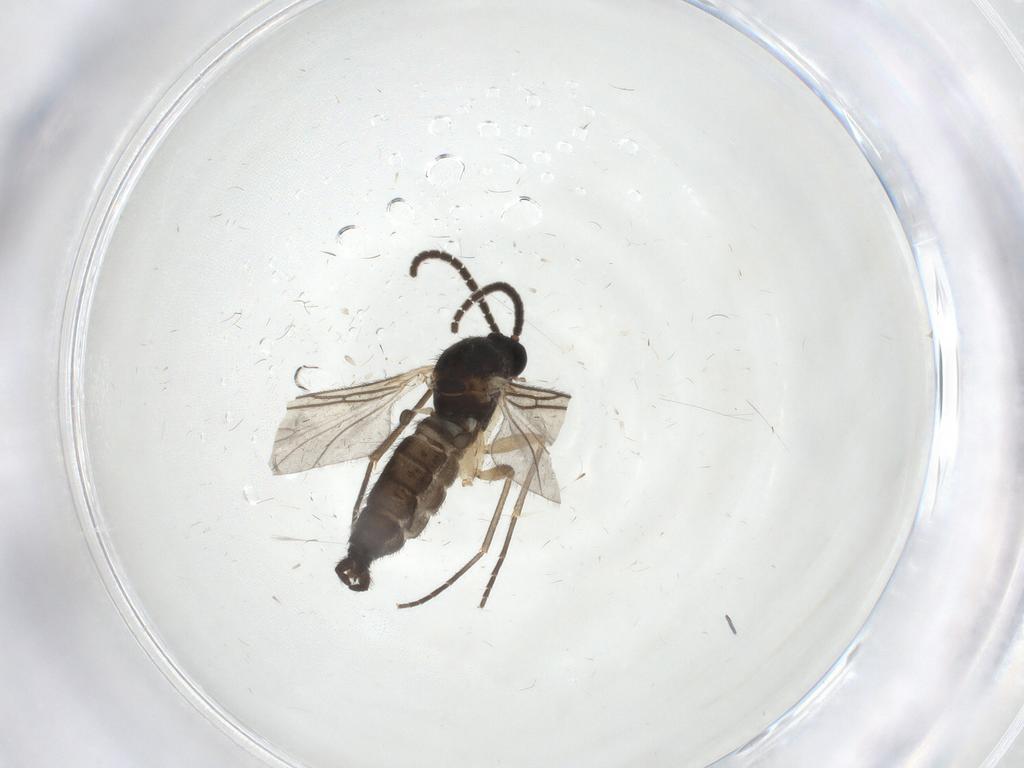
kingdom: Animalia
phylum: Arthropoda
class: Insecta
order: Diptera
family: Sciaridae
